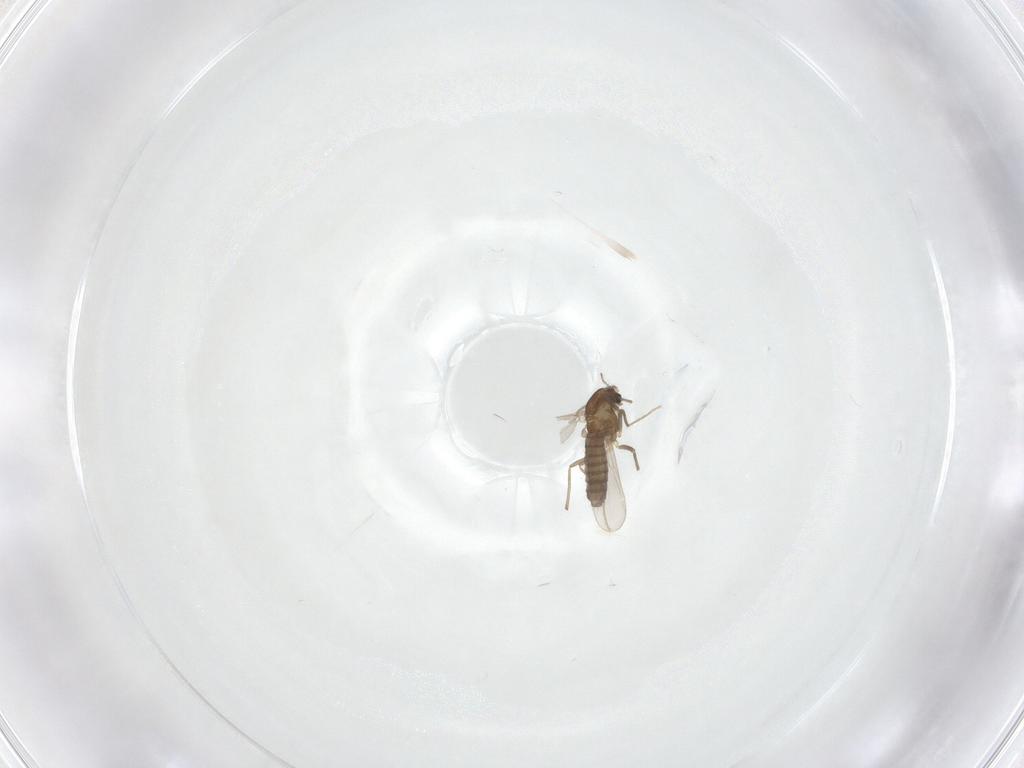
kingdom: Animalia
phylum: Arthropoda
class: Insecta
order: Diptera
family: Chironomidae
